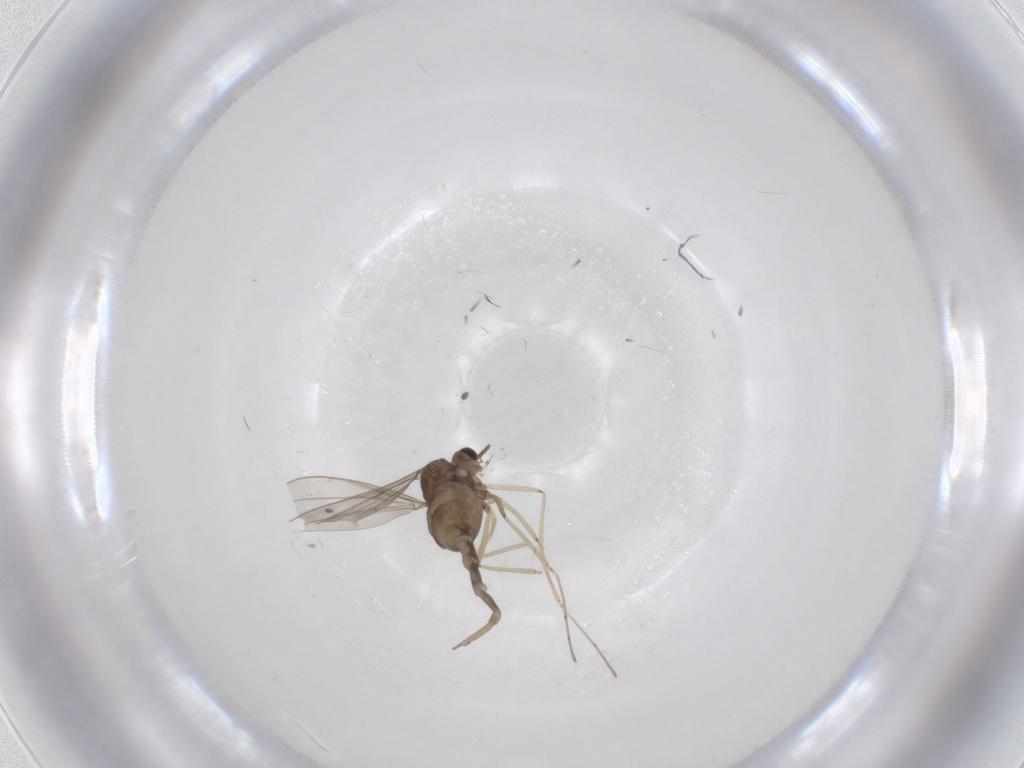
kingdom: Animalia
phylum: Arthropoda
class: Insecta
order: Diptera
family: Cecidomyiidae
